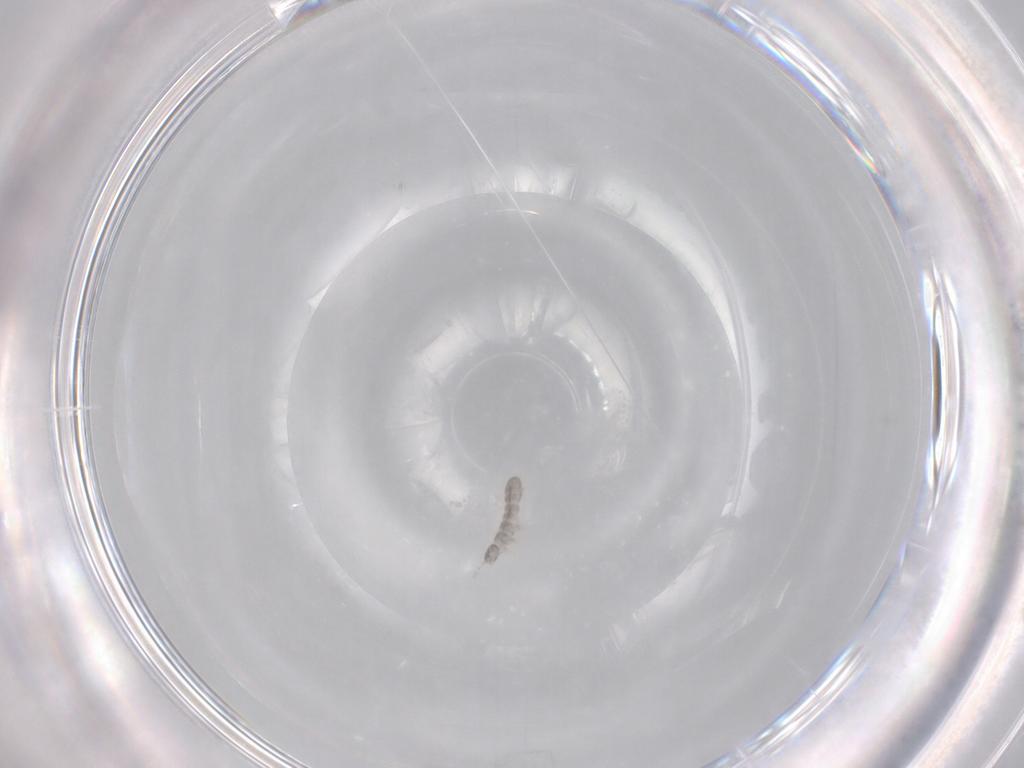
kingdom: Animalia
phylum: Arthropoda
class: Collembola
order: Entomobryomorpha
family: Isotomidae
